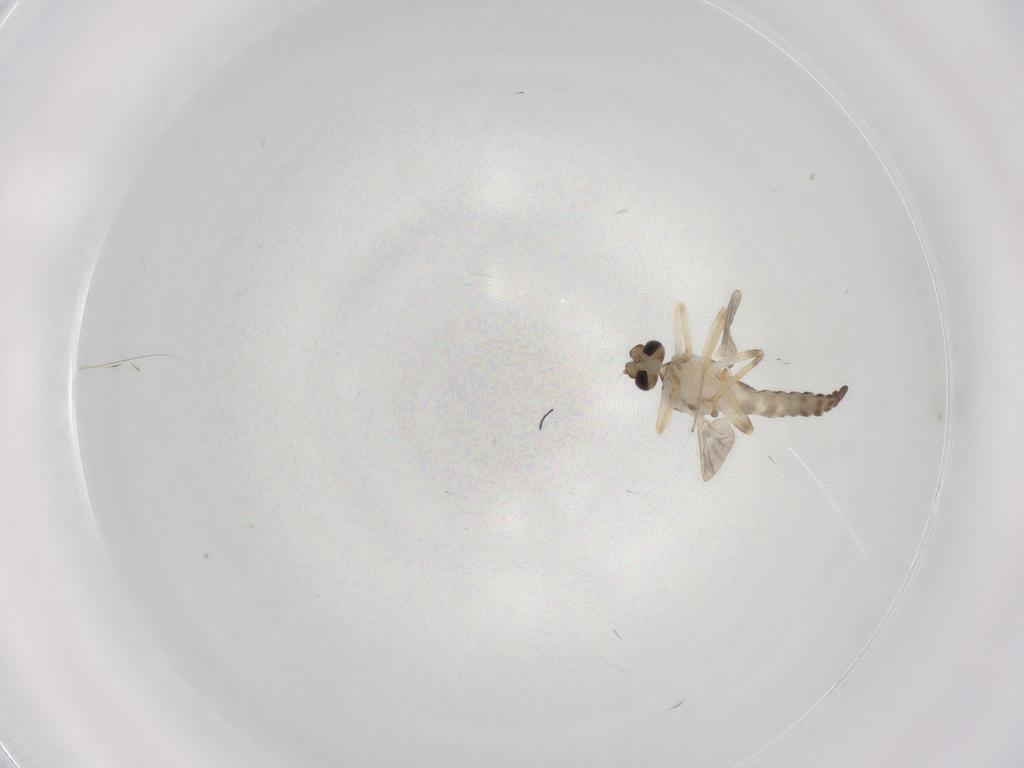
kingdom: Animalia
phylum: Arthropoda
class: Insecta
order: Diptera
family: Ceratopogonidae
